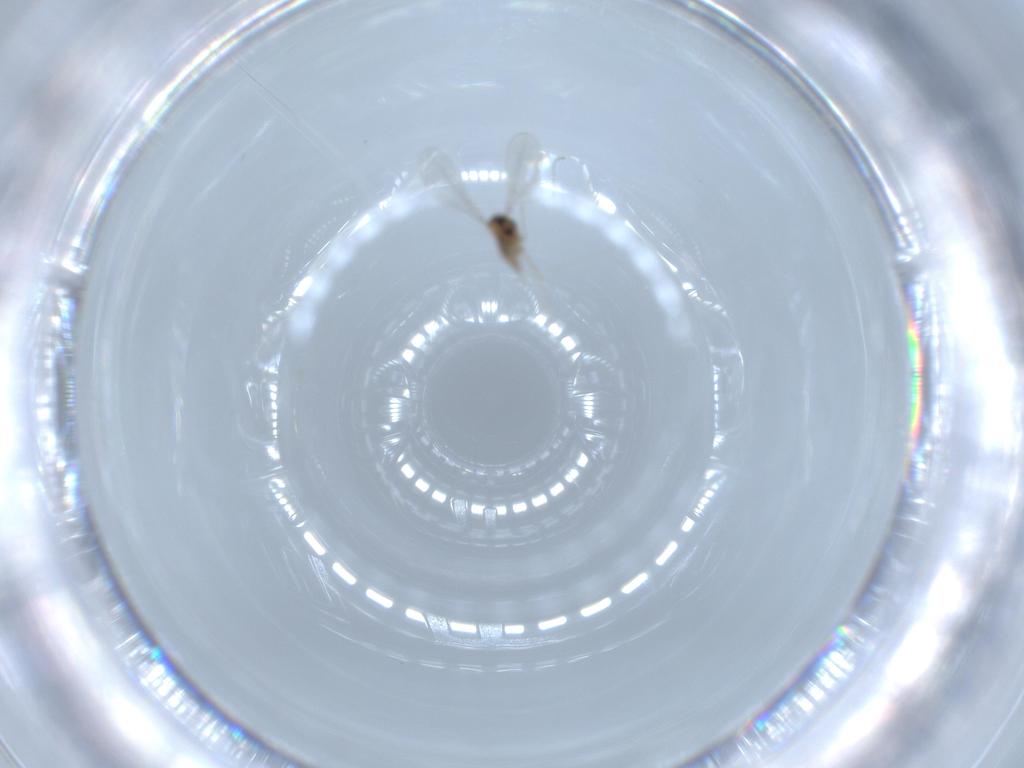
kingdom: Animalia
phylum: Arthropoda
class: Insecta
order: Diptera
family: Cecidomyiidae
